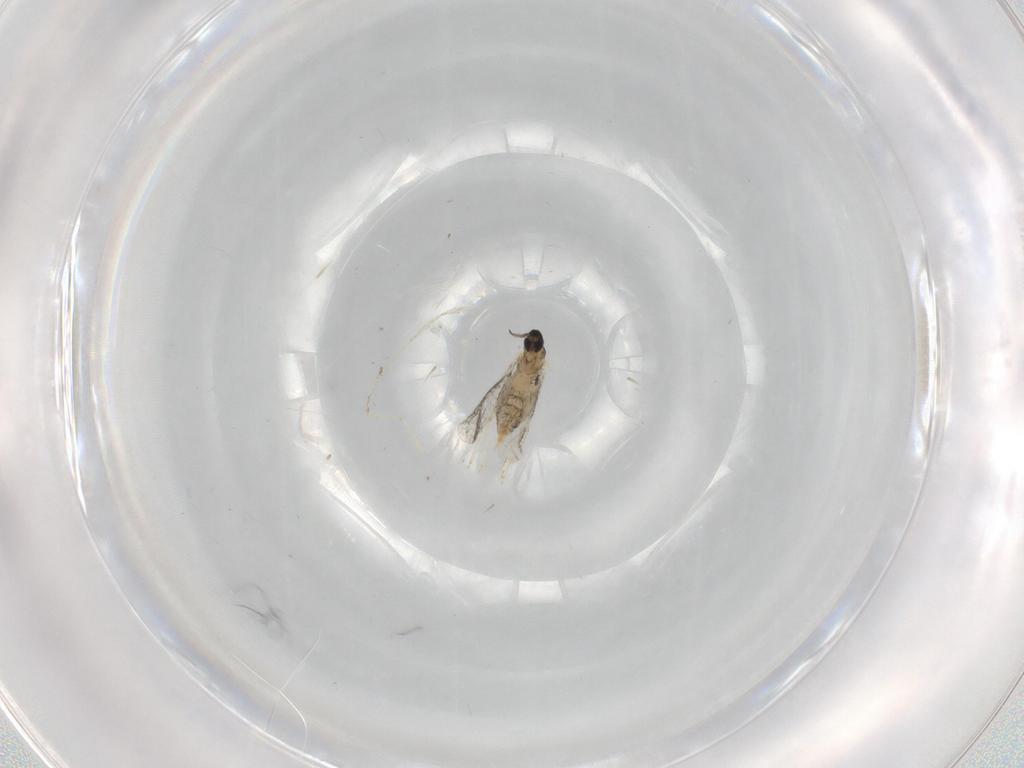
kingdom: Animalia
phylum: Arthropoda
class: Insecta
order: Diptera
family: Cecidomyiidae
